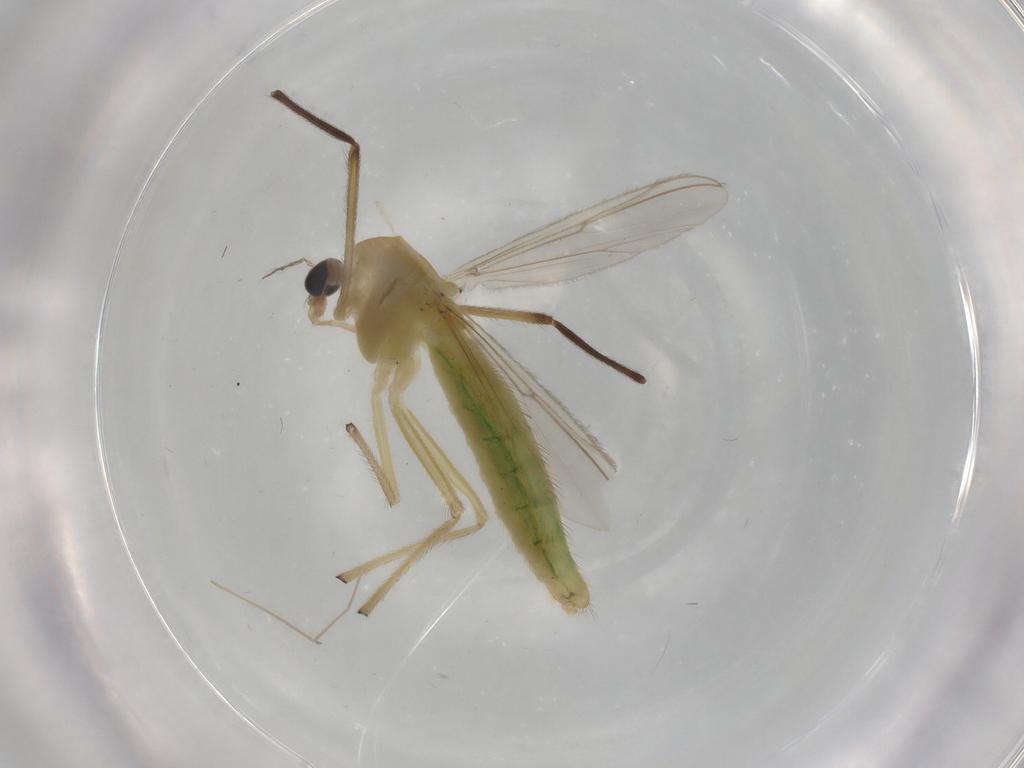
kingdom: Animalia
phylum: Arthropoda
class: Insecta
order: Diptera
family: Chironomidae
